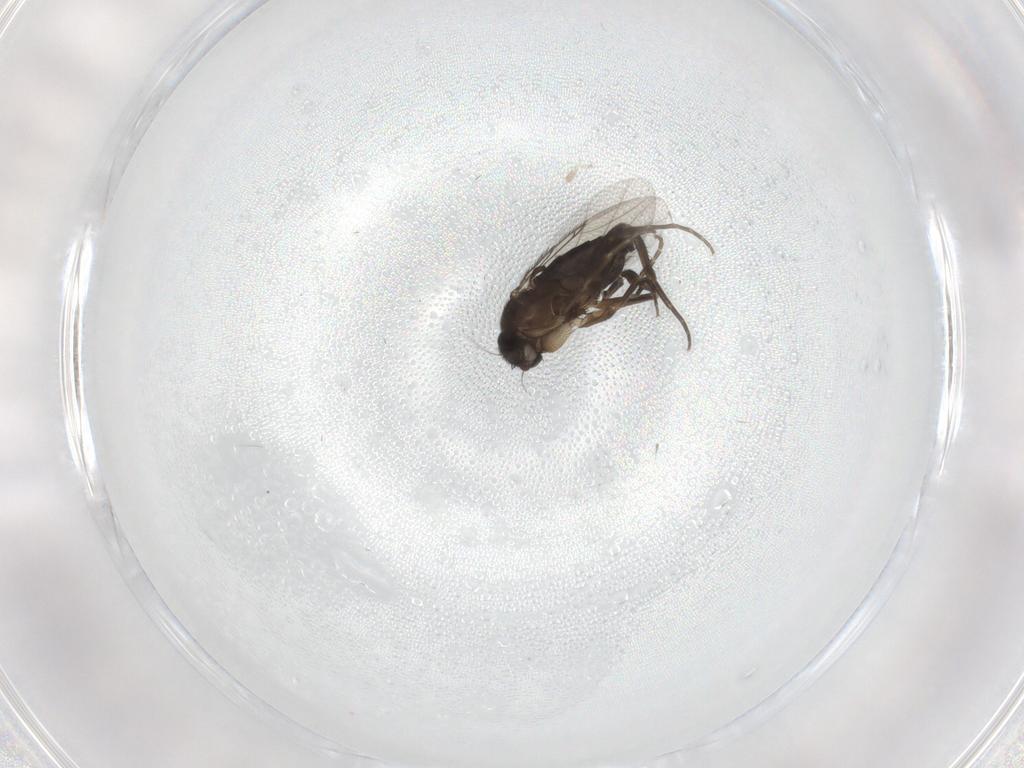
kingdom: Animalia
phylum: Arthropoda
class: Insecta
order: Diptera
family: Phoridae
